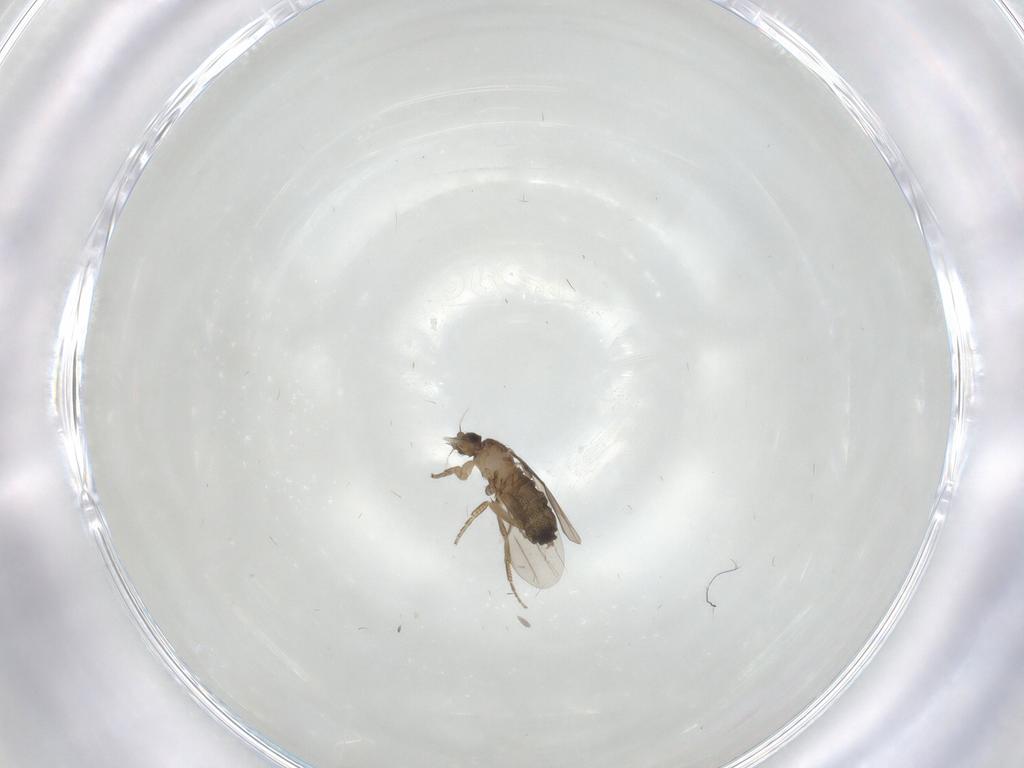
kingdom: Animalia
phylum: Arthropoda
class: Insecta
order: Diptera
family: Phoridae
